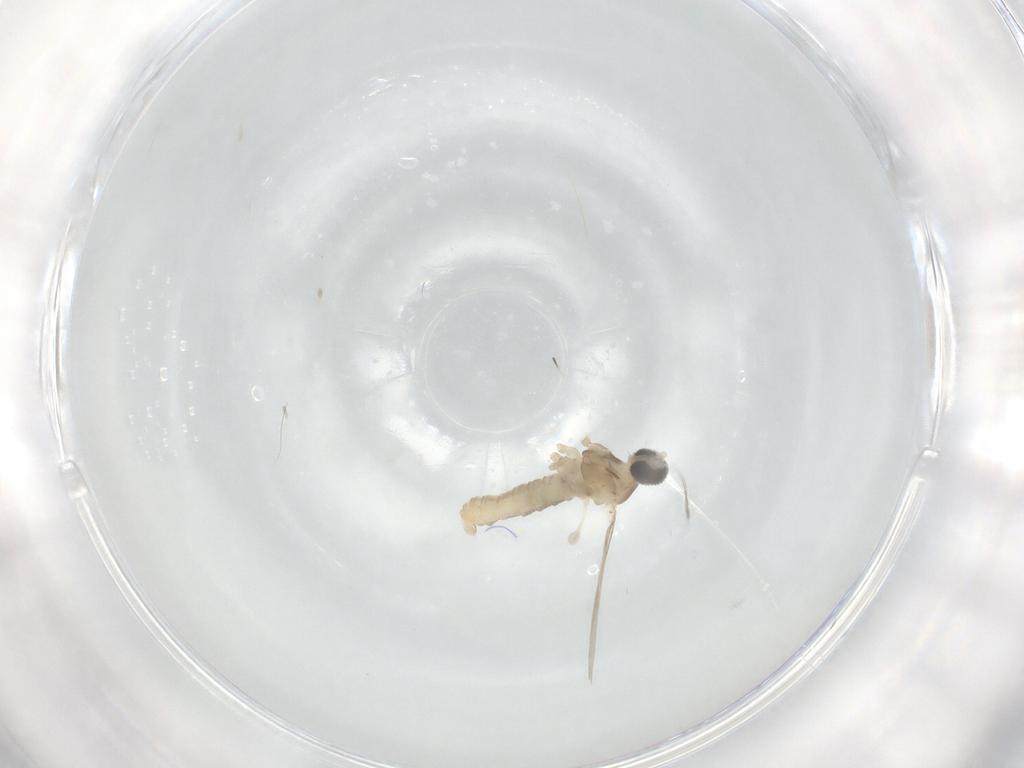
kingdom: Animalia
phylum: Arthropoda
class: Insecta
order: Diptera
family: Cecidomyiidae
